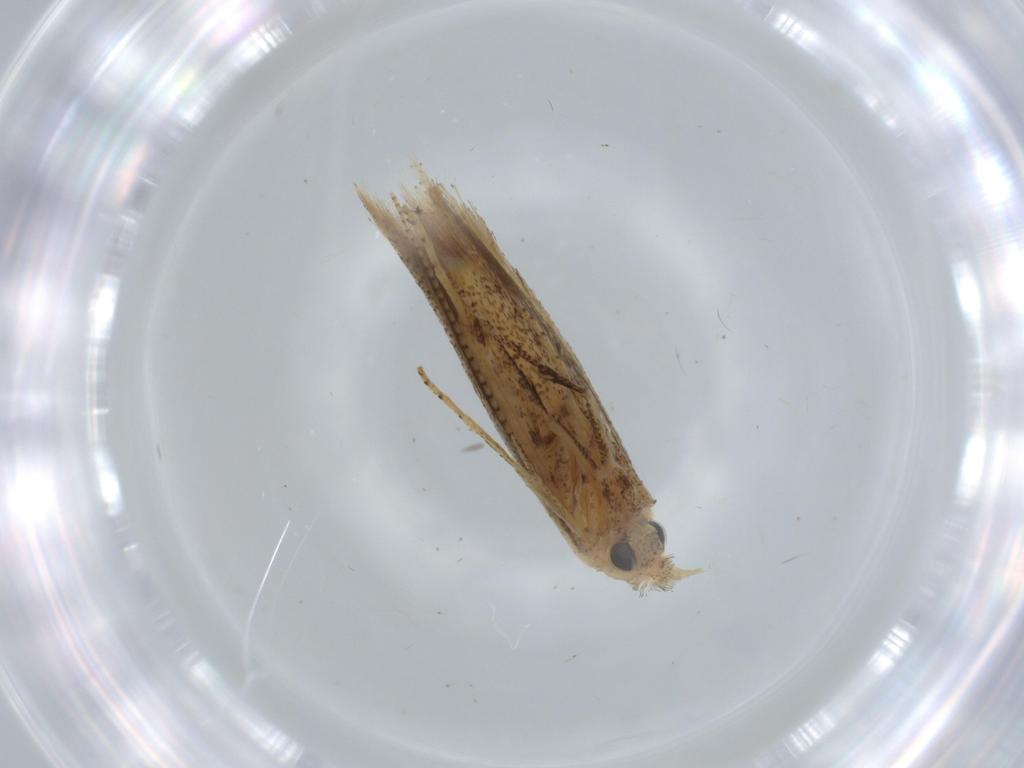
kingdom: Animalia
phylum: Arthropoda
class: Insecta
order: Lepidoptera
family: Bedelliidae
